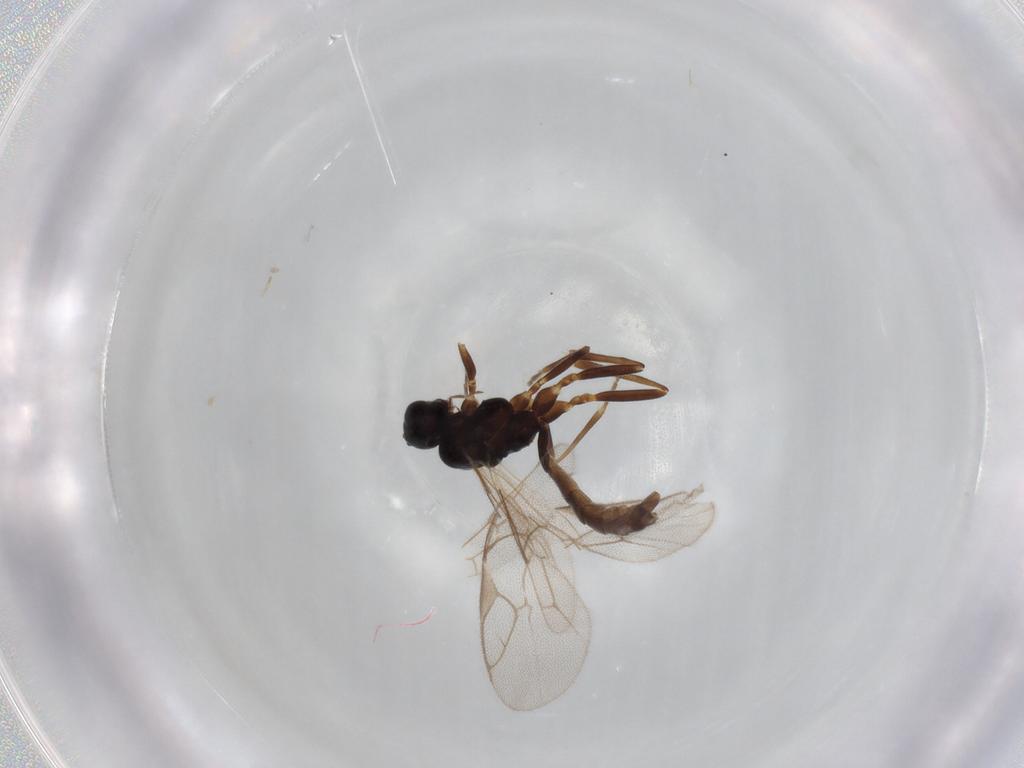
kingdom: Animalia
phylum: Arthropoda
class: Insecta
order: Hymenoptera
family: Ichneumonidae
